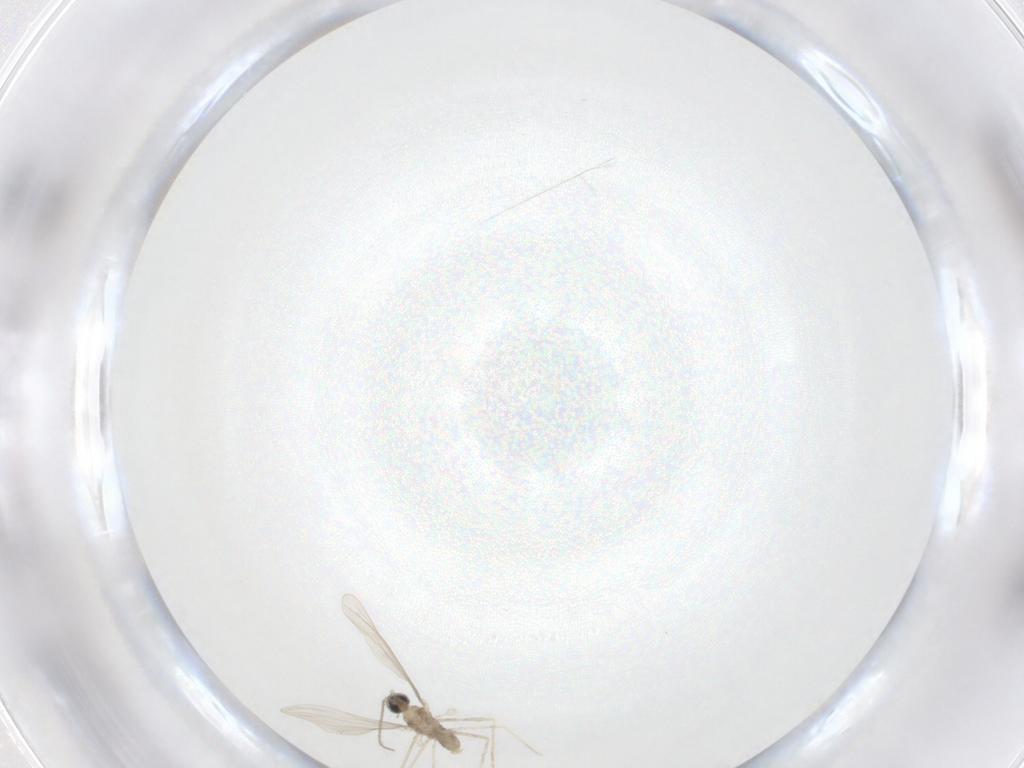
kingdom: Animalia
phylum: Arthropoda
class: Insecta
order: Diptera
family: Cecidomyiidae
